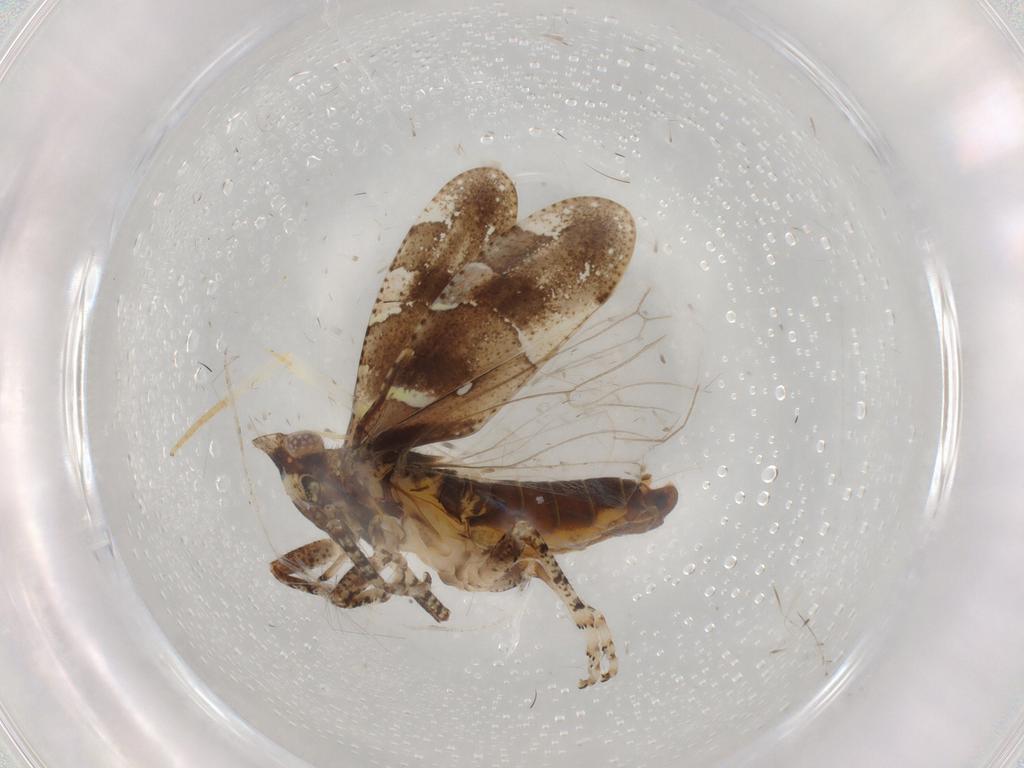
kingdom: Animalia
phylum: Arthropoda
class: Insecta
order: Hemiptera
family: Tettigometridae
